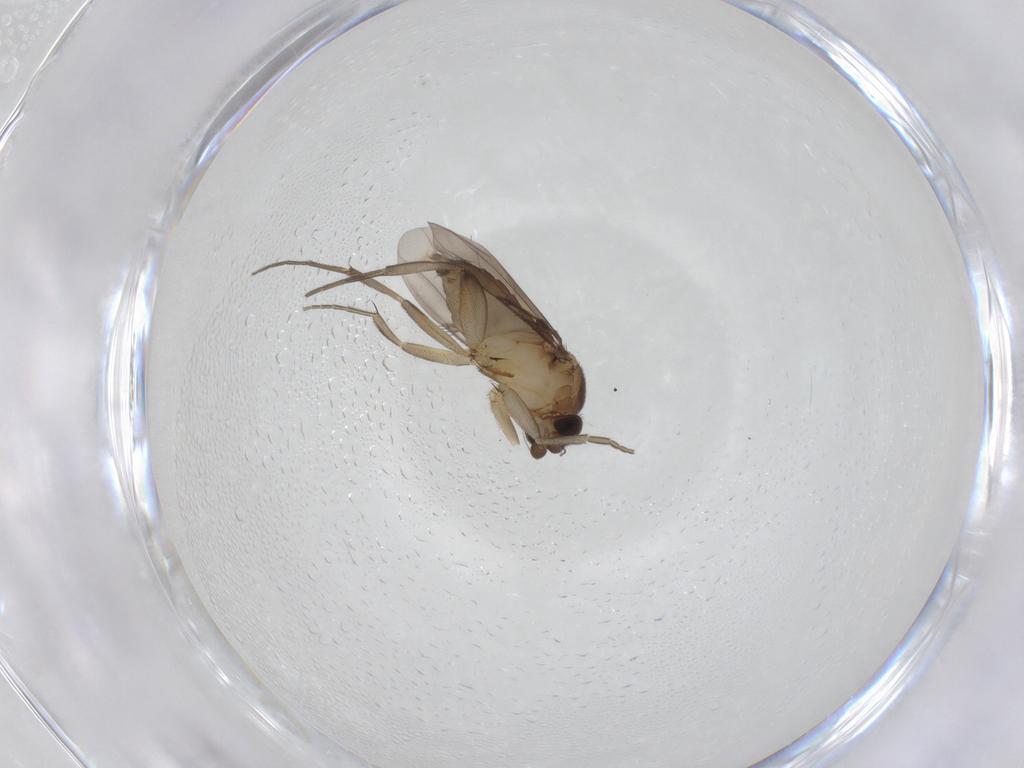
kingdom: Animalia
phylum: Arthropoda
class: Insecta
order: Diptera
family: Phoridae
